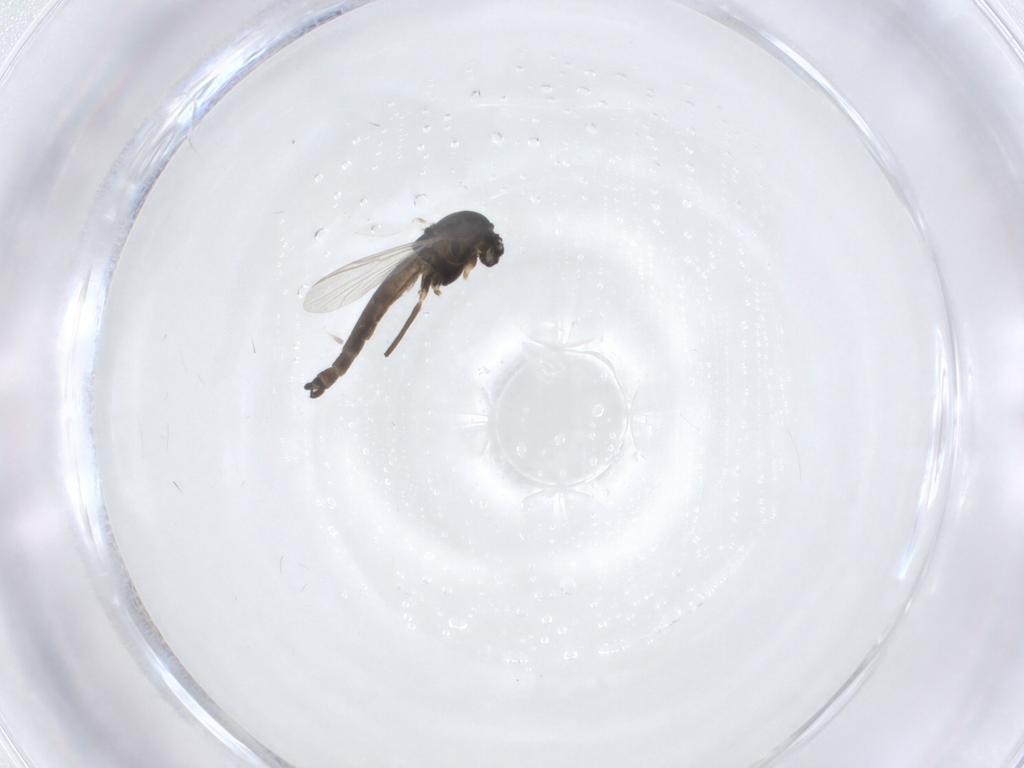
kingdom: Animalia
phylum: Arthropoda
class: Insecta
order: Diptera
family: Chironomidae
